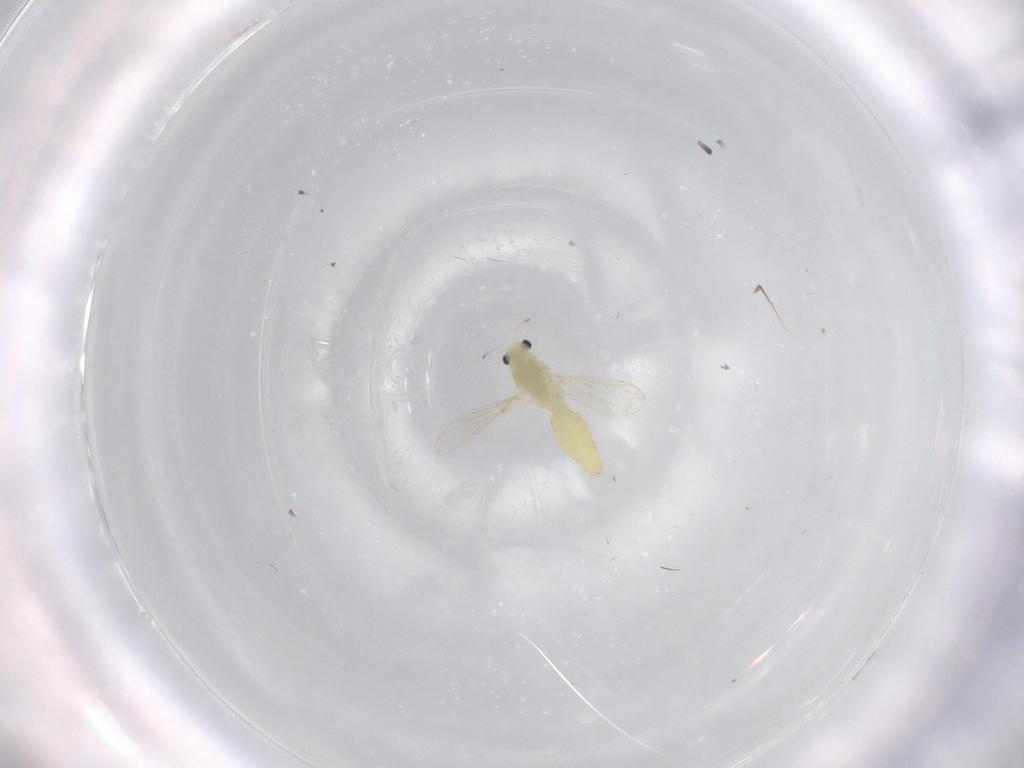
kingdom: Animalia
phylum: Arthropoda
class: Insecta
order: Diptera
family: Chironomidae
